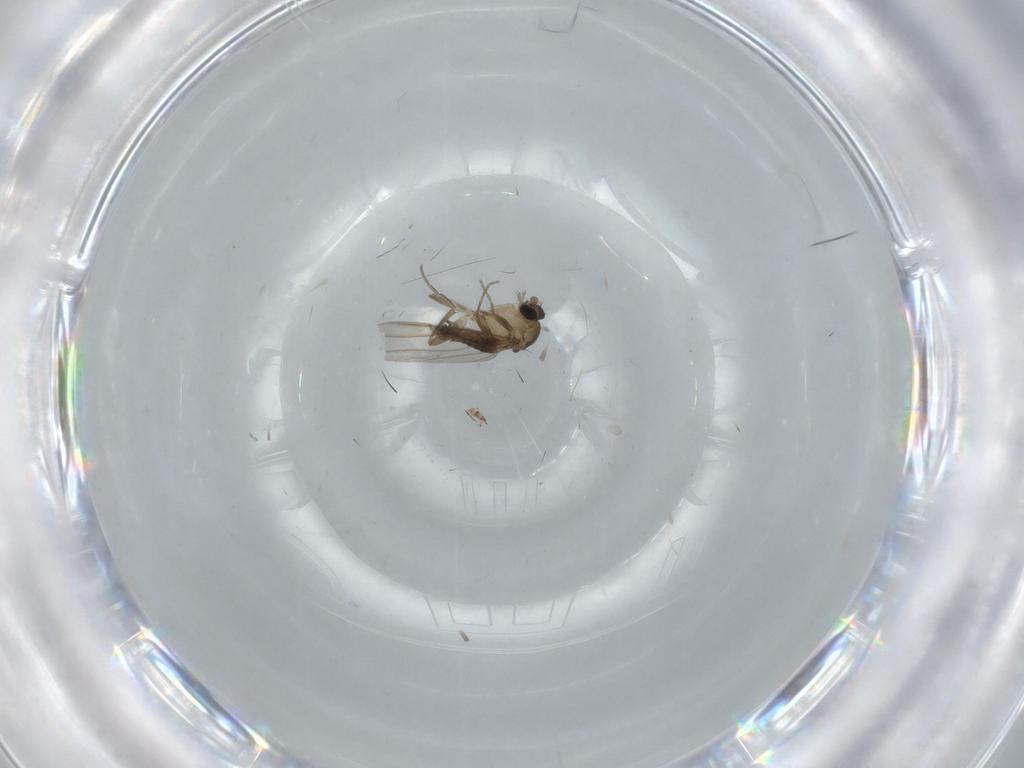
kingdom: Animalia
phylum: Arthropoda
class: Insecta
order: Diptera
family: Phoridae
